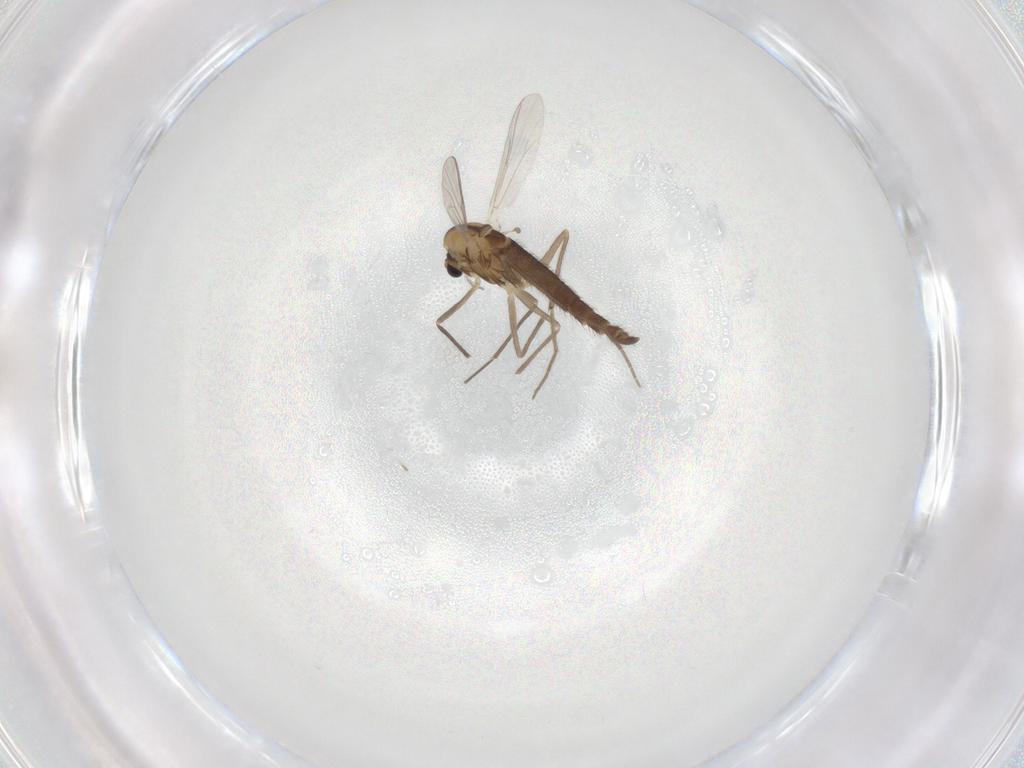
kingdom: Animalia
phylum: Arthropoda
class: Insecta
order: Diptera
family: Chironomidae
